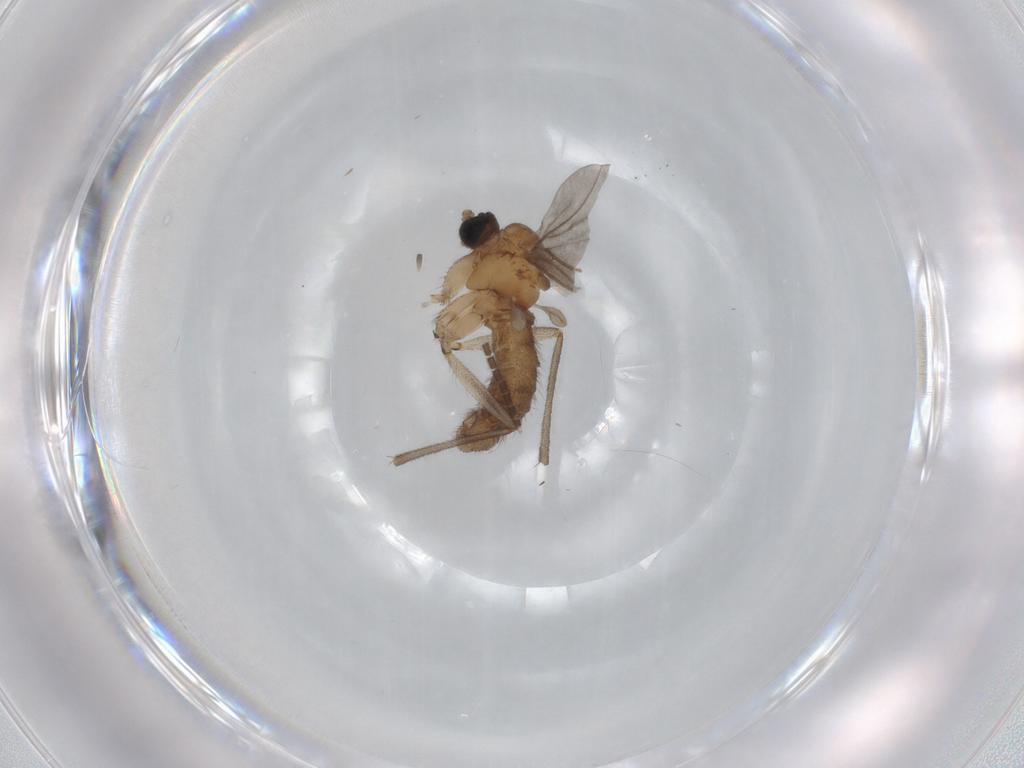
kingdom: Animalia
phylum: Arthropoda
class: Insecta
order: Diptera
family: Sciaridae
